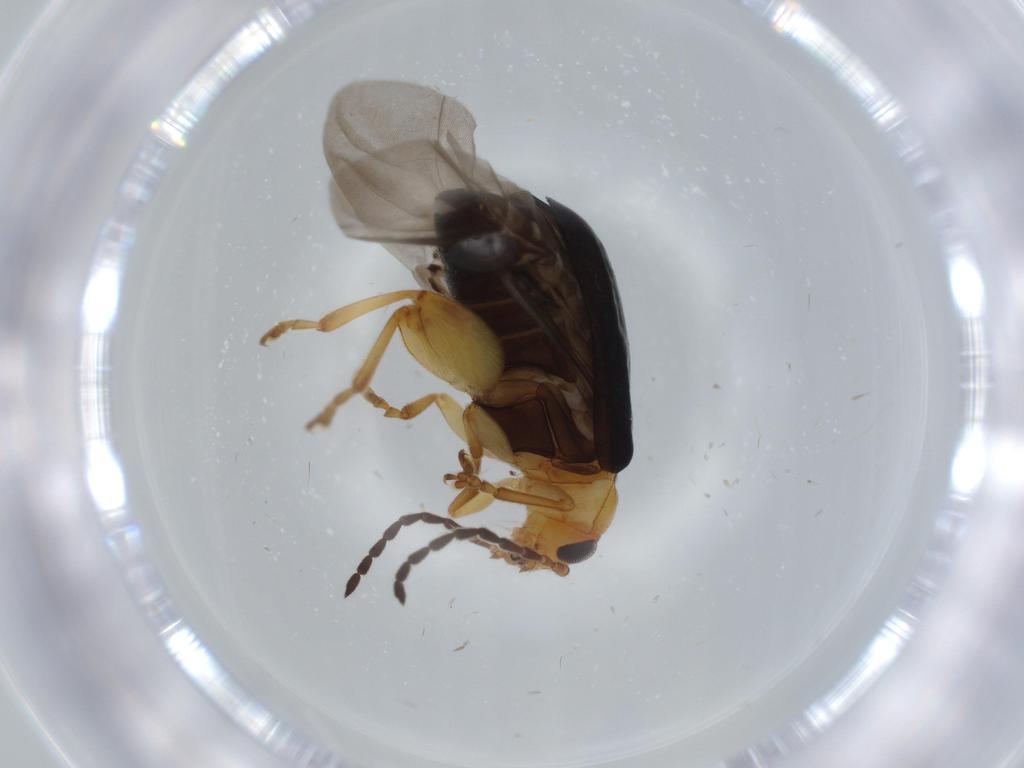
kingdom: Animalia
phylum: Arthropoda
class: Insecta
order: Coleoptera
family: Chrysomelidae
